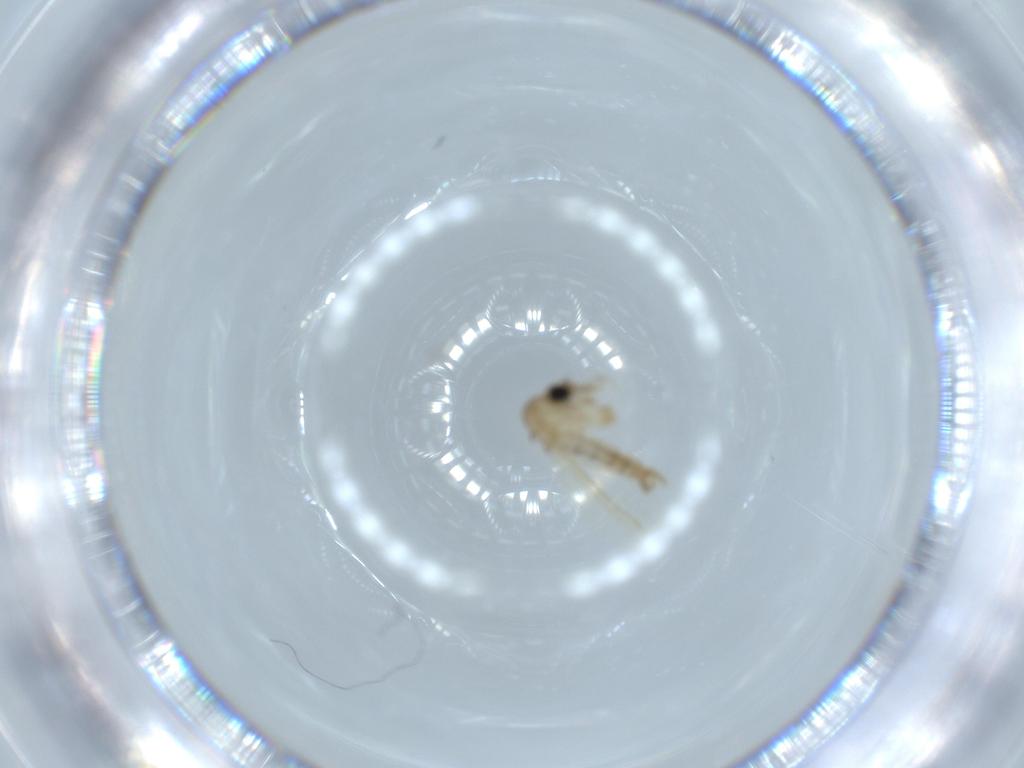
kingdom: Animalia
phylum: Arthropoda
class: Insecta
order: Diptera
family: Psychodidae
